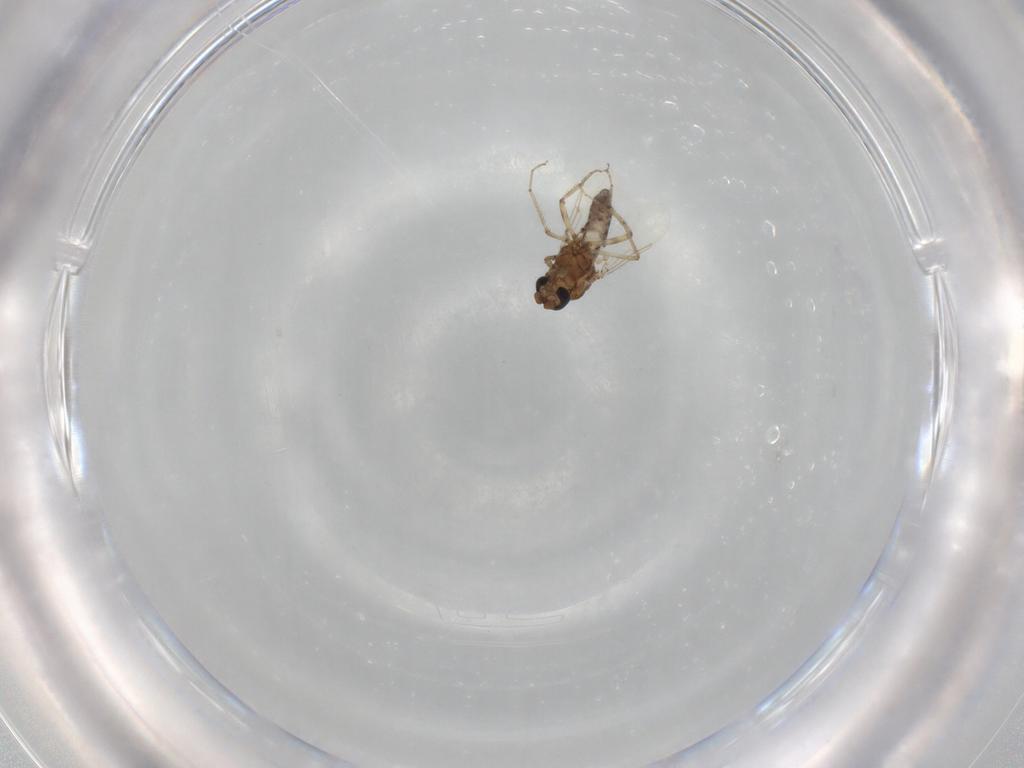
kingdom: Animalia
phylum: Arthropoda
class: Insecta
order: Diptera
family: Ceratopogonidae
